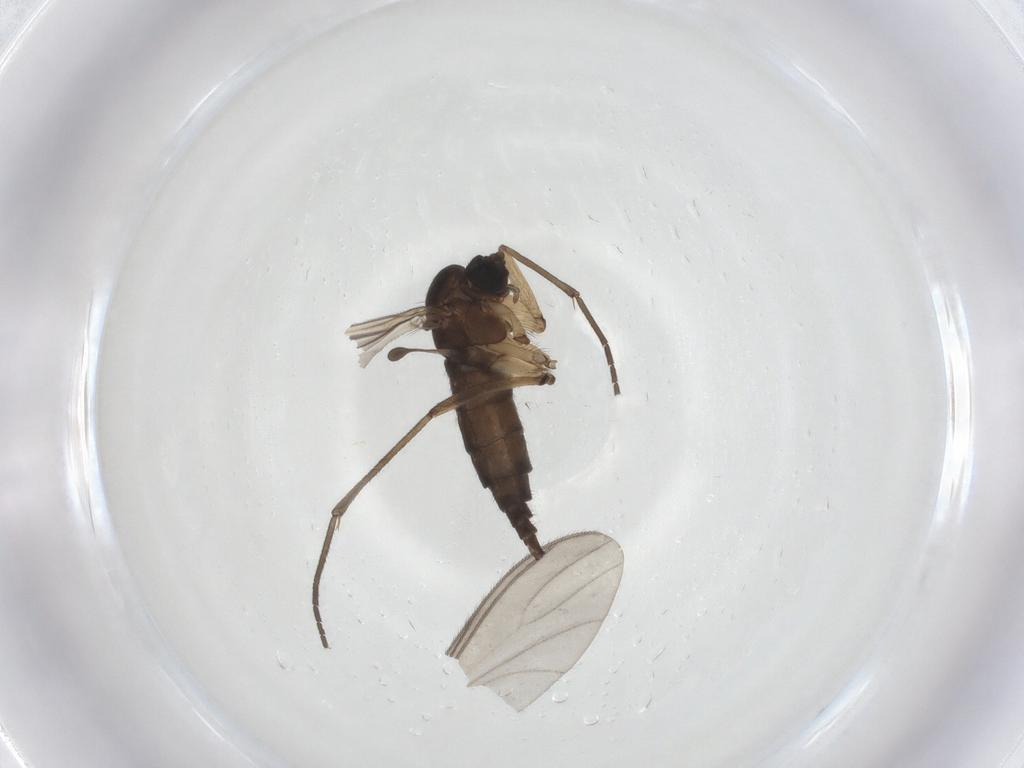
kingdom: Animalia
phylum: Arthropoda
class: Insecta
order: Diptera
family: Sciaridae
